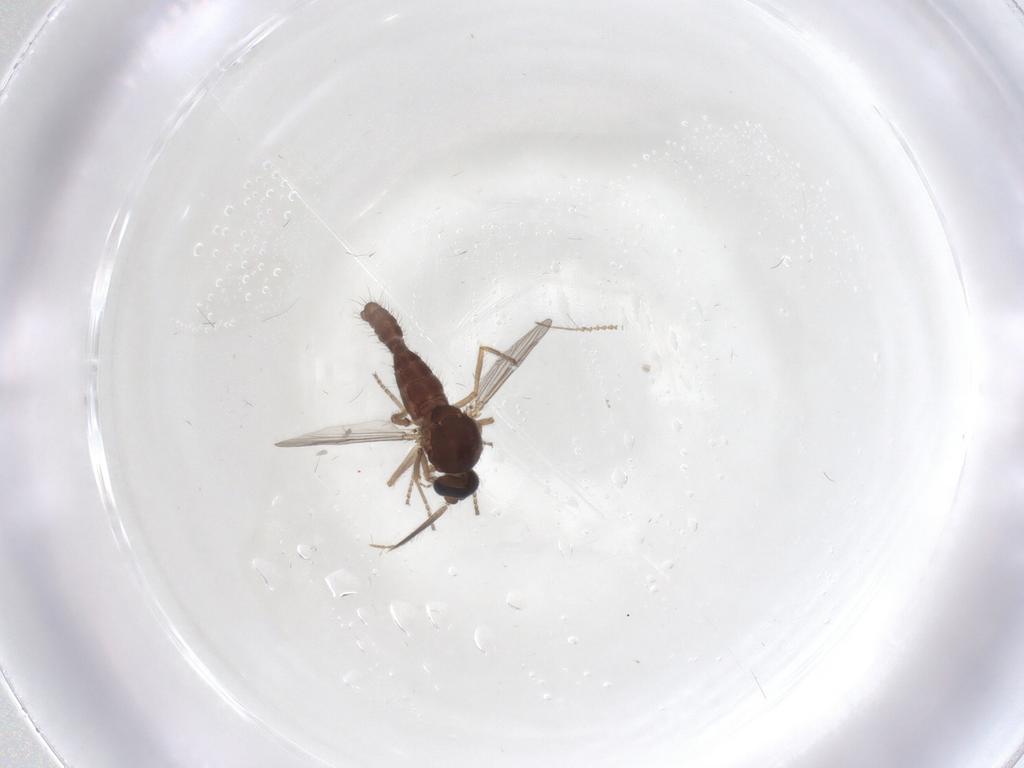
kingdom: Animalia
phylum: Arthropoda
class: Insecta
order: Diptera
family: Ceratopogonidae
